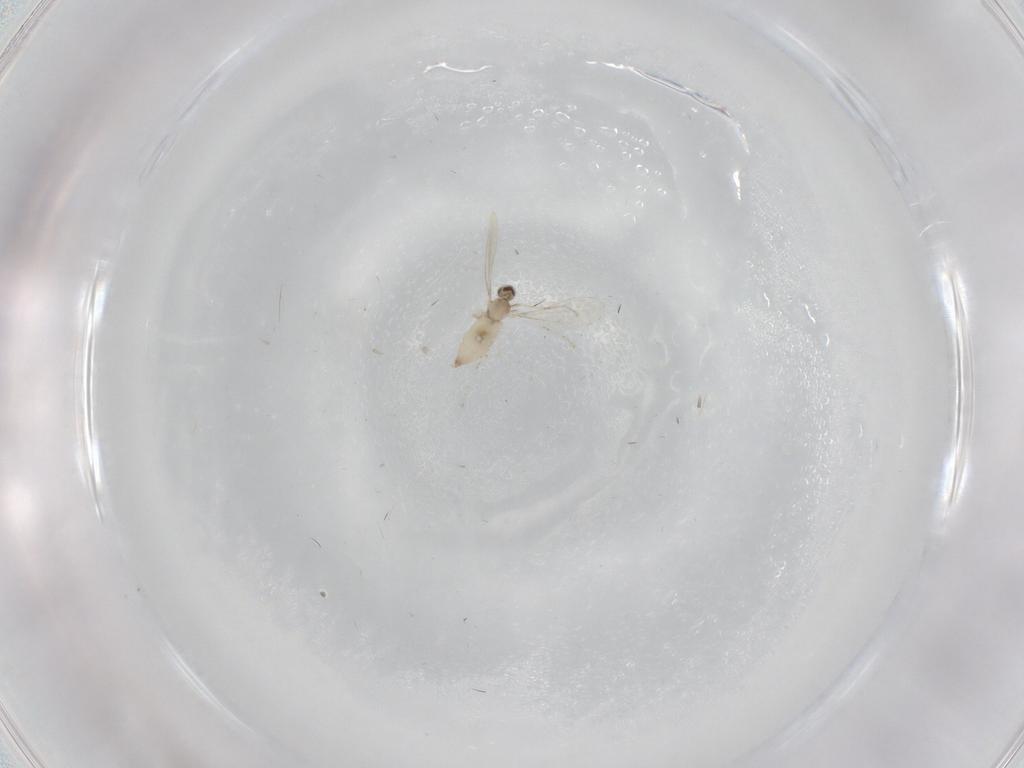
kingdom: Animalia
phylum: Arthropoda
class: Insecta
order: Diptera
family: Cecidomyiidae
